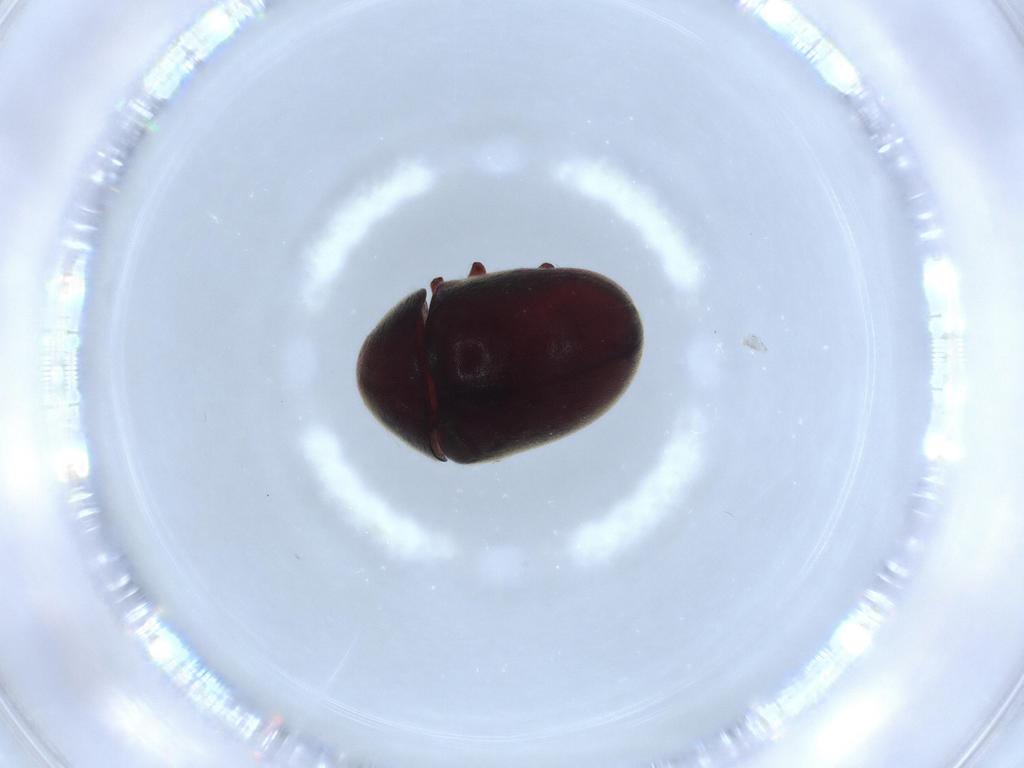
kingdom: Animalia
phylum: Arthropoda
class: Insecta
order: Coleoptera
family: Ptinidae
